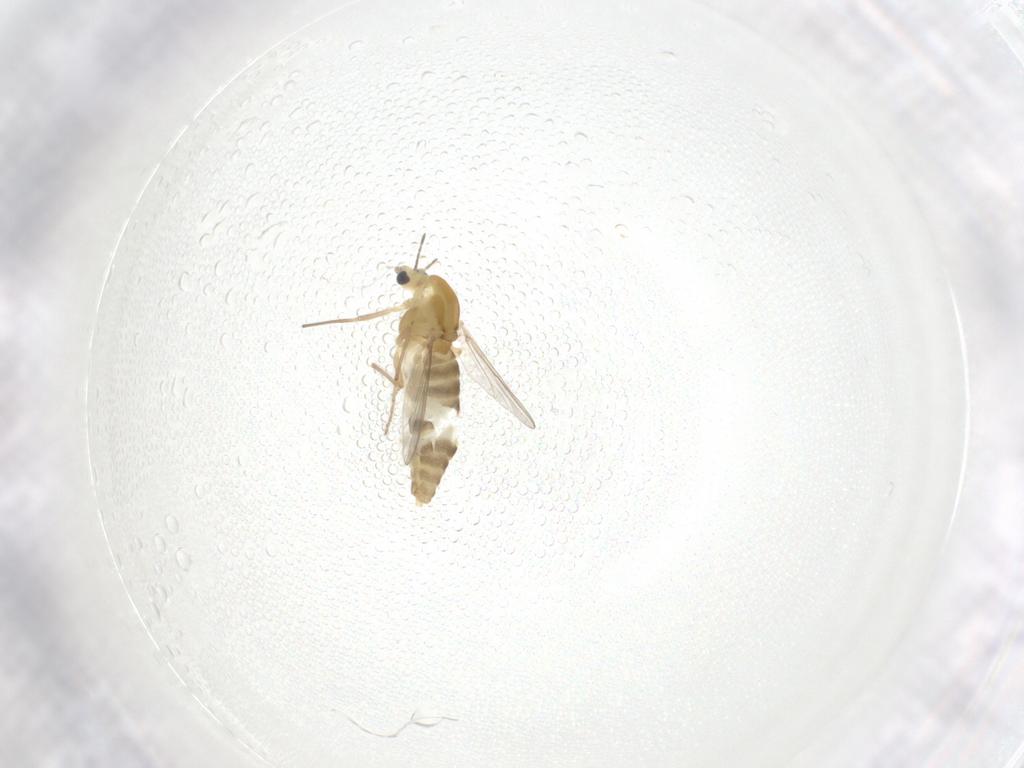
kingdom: Animalia
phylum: Arthropoda
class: Insecta
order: Diptera
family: Chironomidae
